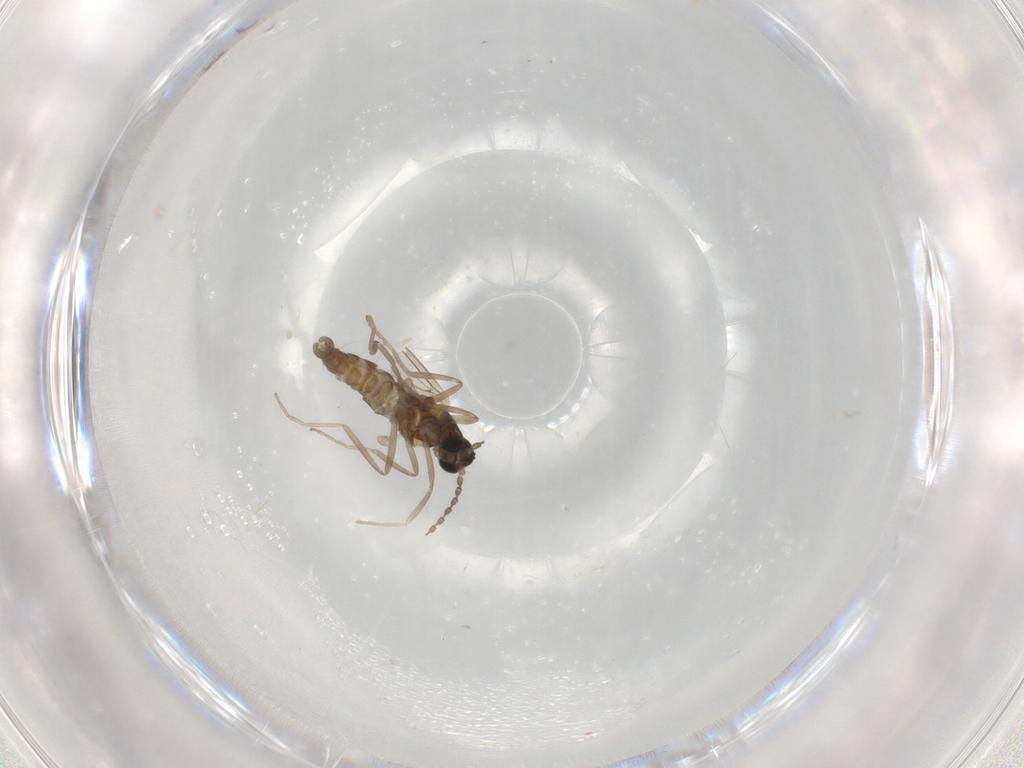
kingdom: Animalia
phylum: Arthropoda
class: Insecta
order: Diptera
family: Cecidomyiidae
